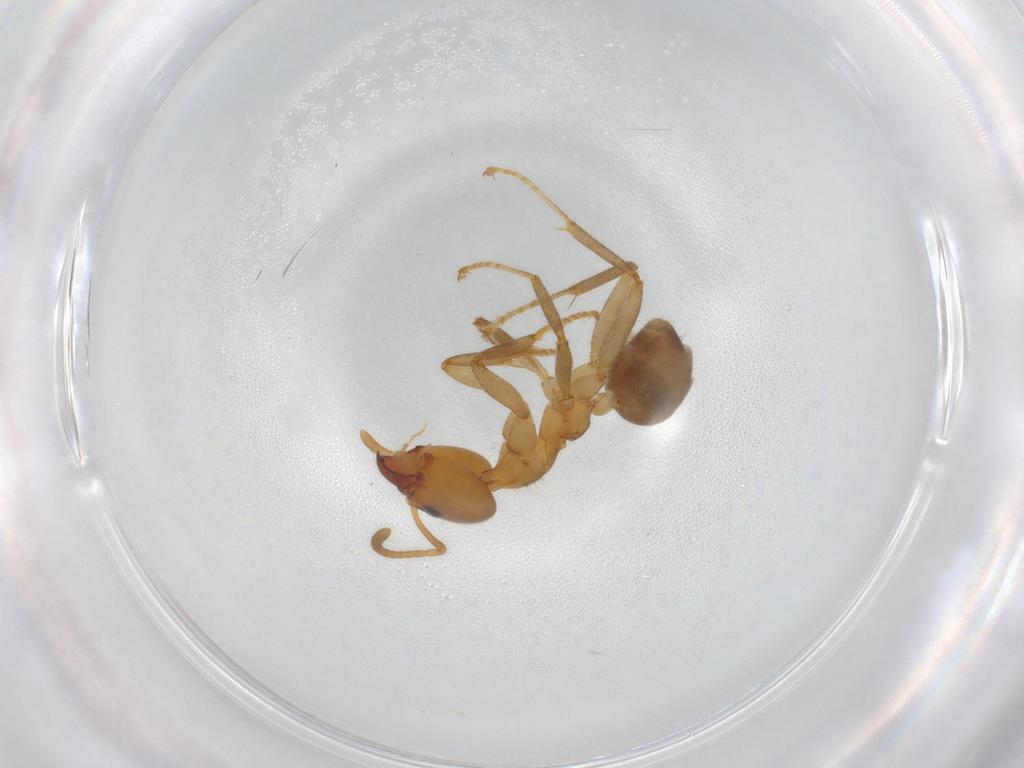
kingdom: Animalia
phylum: Arthropoda
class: Insecta
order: Hymenoptera
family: Formicidae
